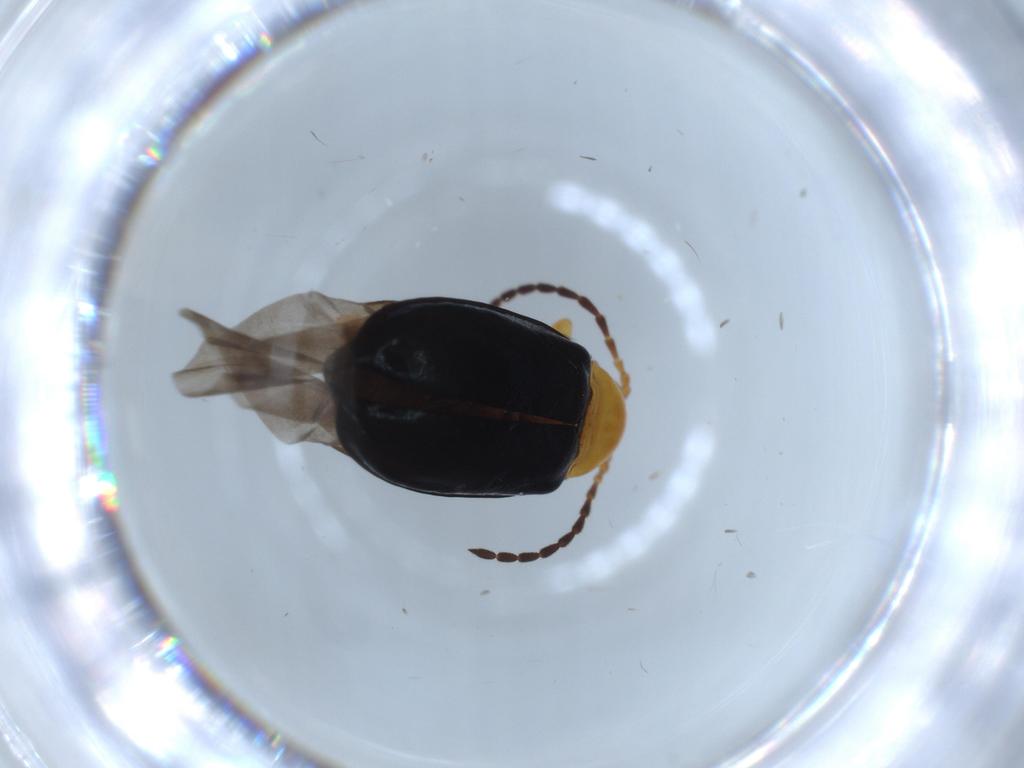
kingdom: Animalia
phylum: Arthropoda
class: Insecta
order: Coleoptera
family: Chrysomelidae
